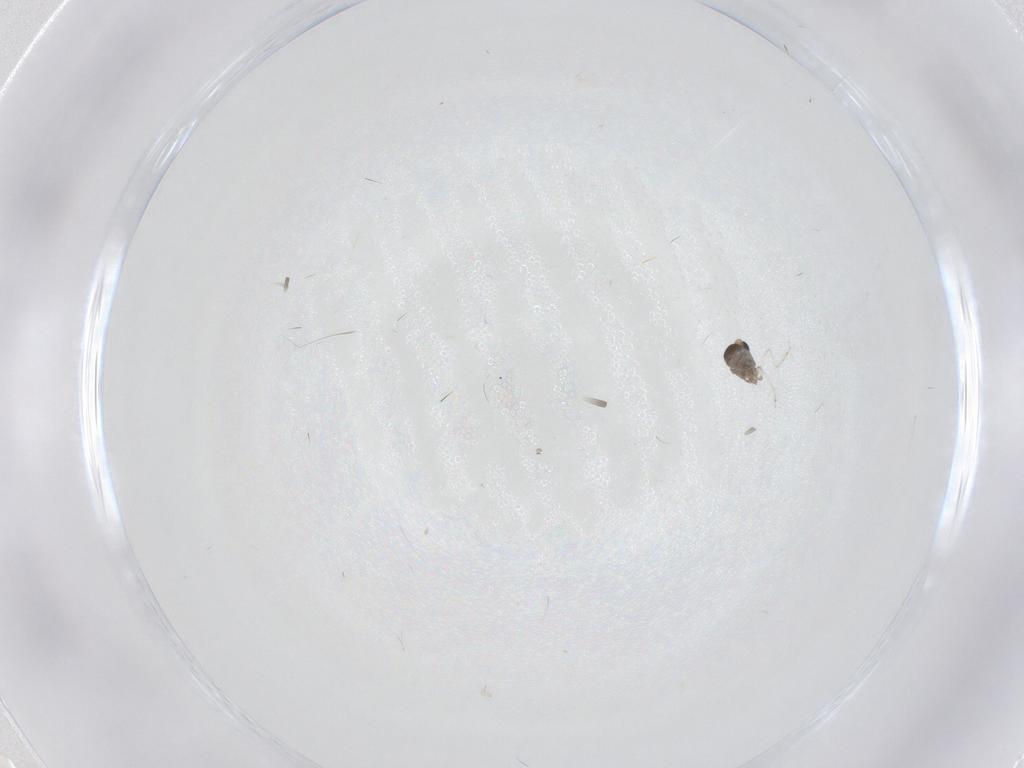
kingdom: Animalia
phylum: Arthropoda
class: Insecta
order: Diptera
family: Cecidomyiidae
